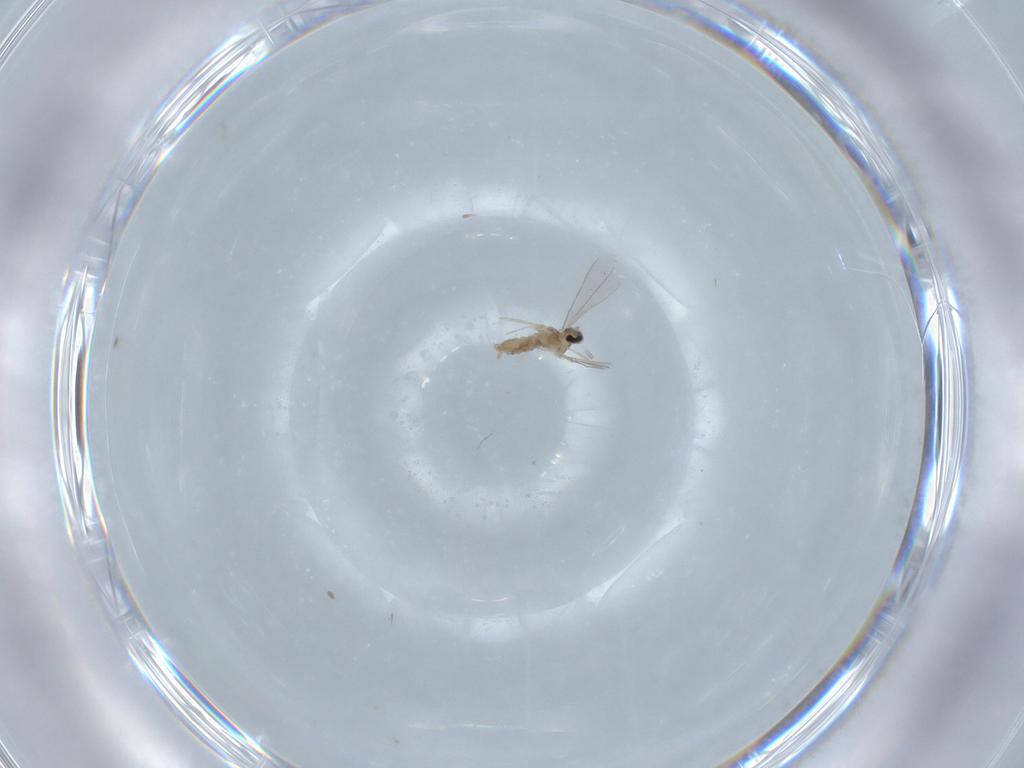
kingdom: Animalia
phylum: Arthropoda
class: Insecta
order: Diptera
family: Cecidomyiidae
